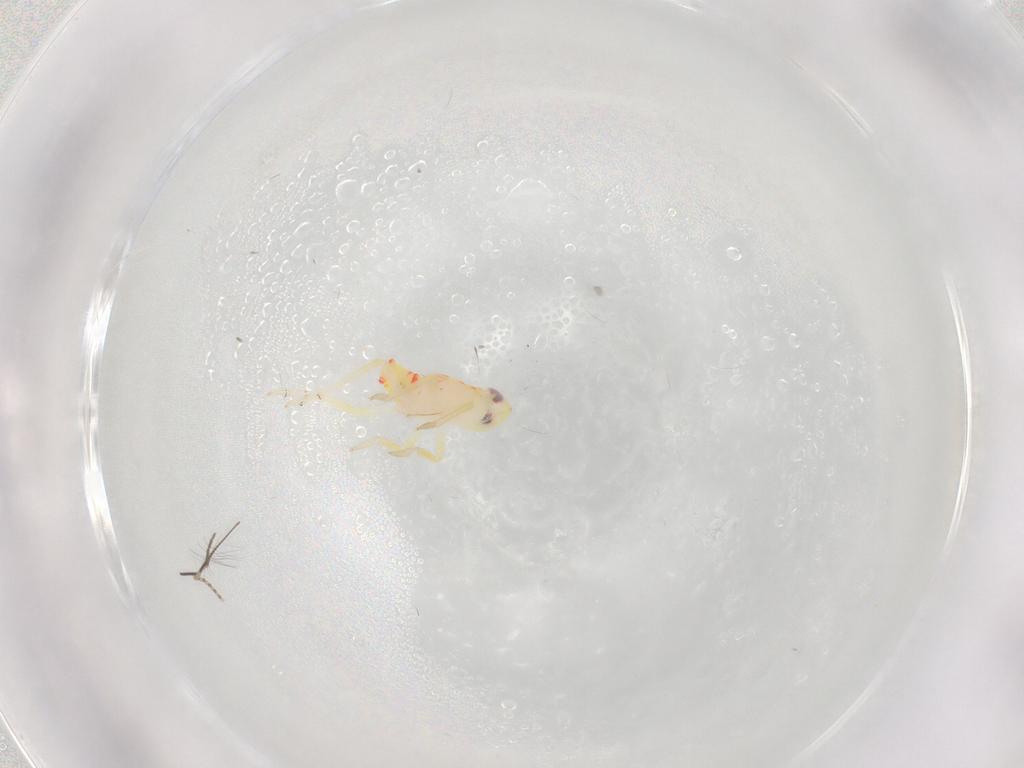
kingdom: Animalia
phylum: Arthropoda
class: Insecta
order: Hemiptera
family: Tropiduchidae
